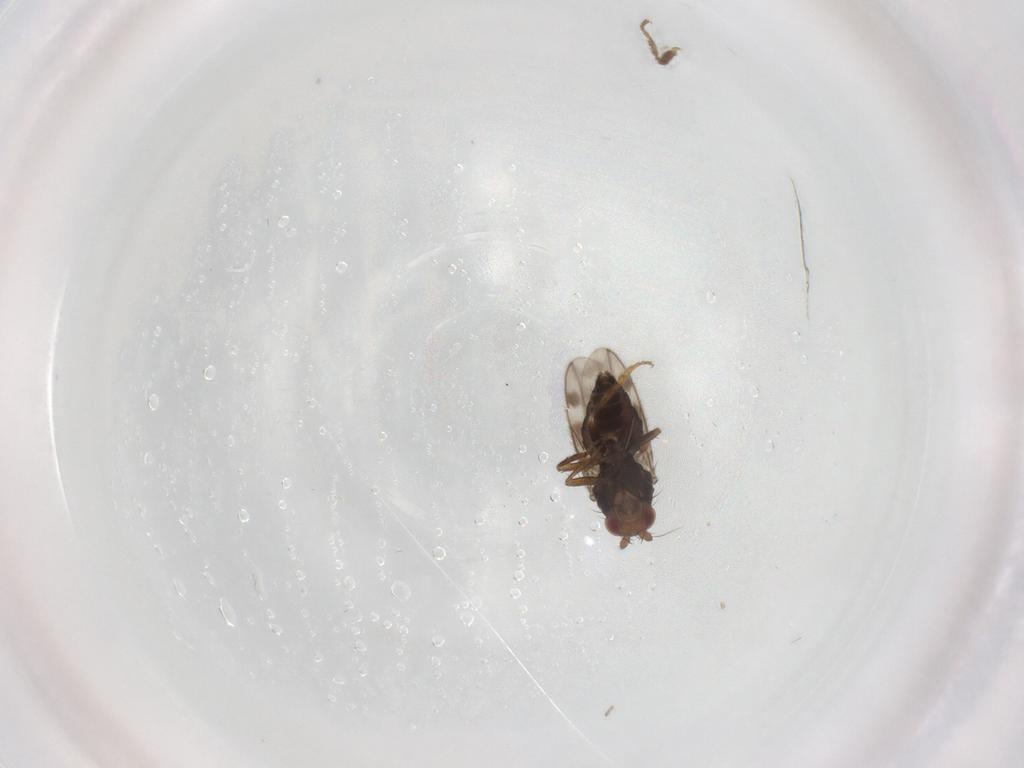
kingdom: Animalia
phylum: Arthropoda
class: Insecta
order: Diptera
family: Sphaeroceridae
